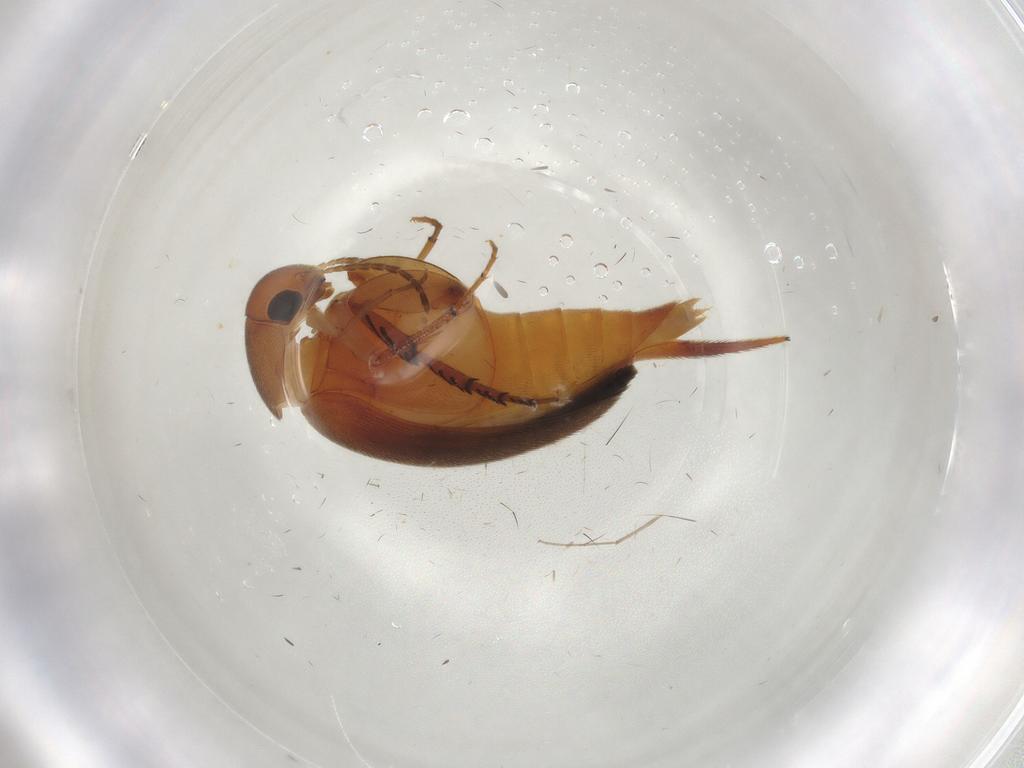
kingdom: Animalia
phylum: Arthropoda
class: Insecta
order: Coleoptera
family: Mordellidae
